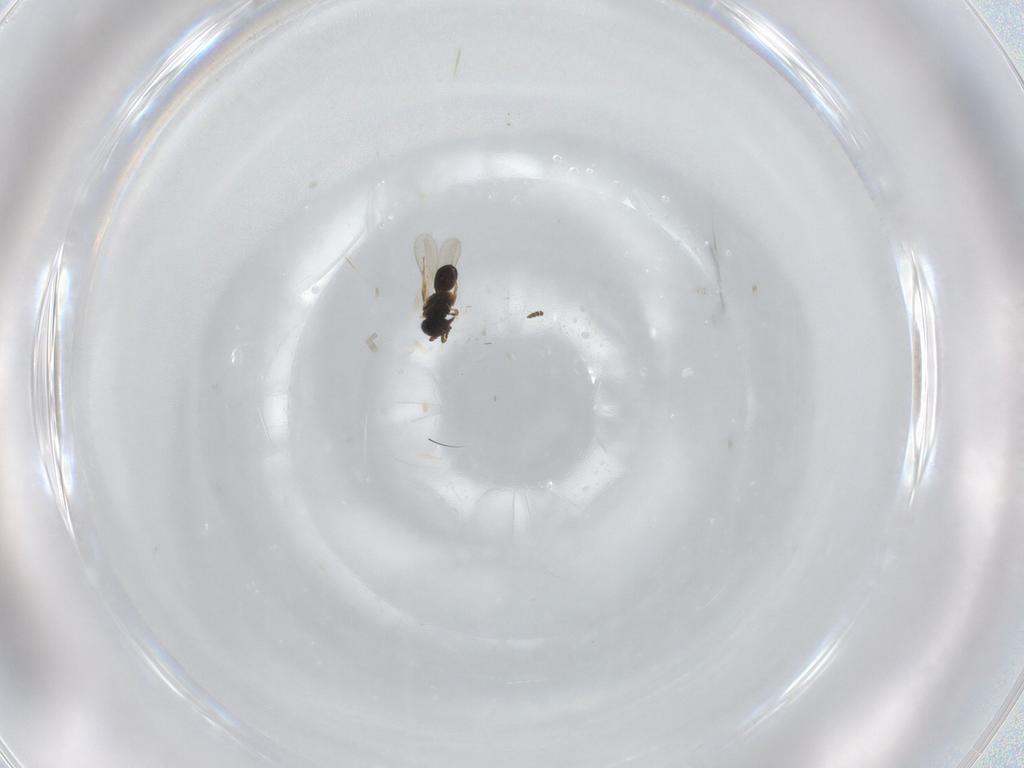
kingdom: Animalia
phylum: Arthropoda
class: Insecta
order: Hymenoptera
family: Scelionidae
